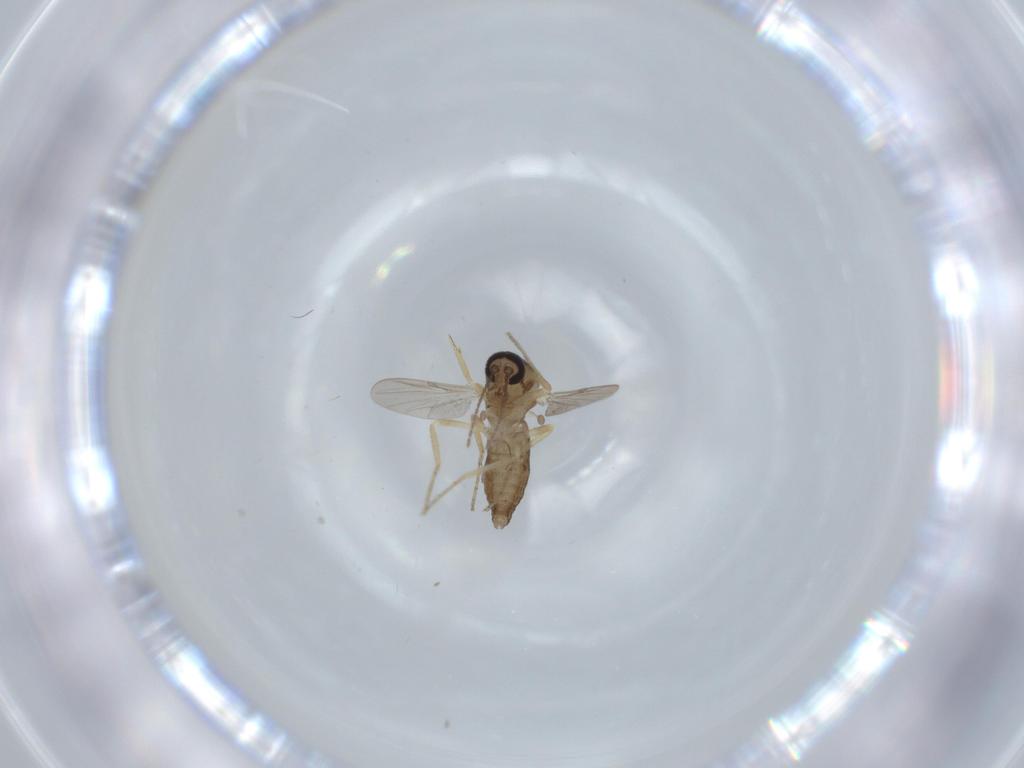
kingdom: Animalia
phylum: Arthropoda
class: Insecta
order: Diptera
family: Ceratopogonidae
